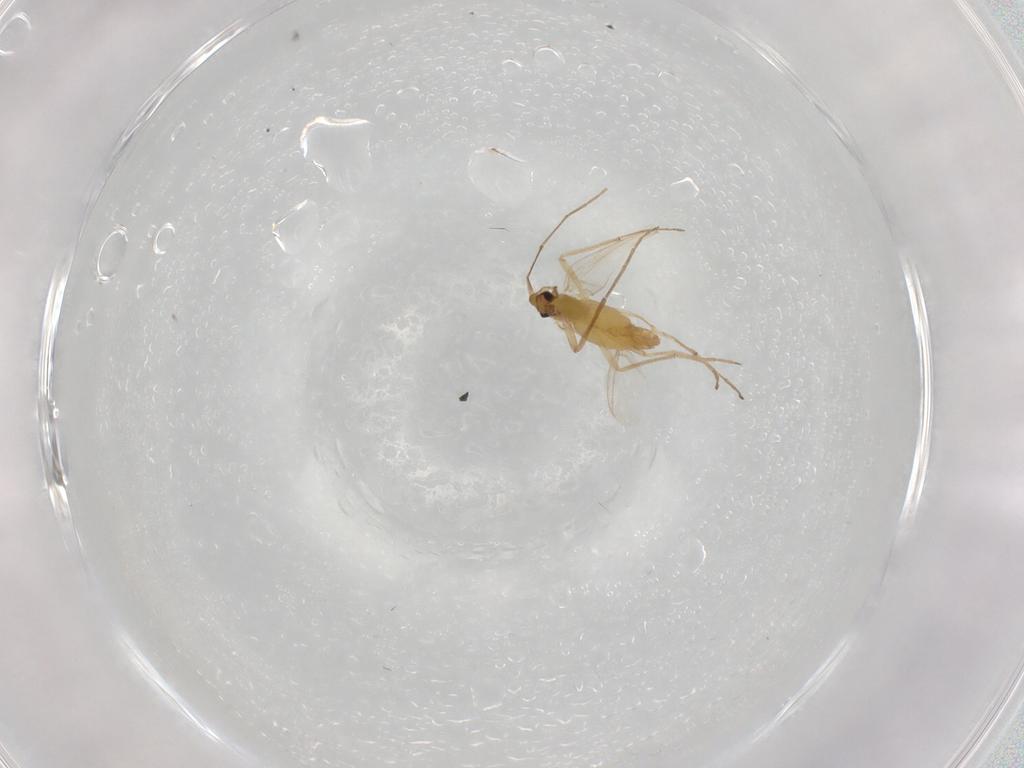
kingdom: Animalia
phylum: Arthropoda
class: Insecta
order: Diptera
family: Chironomidae
